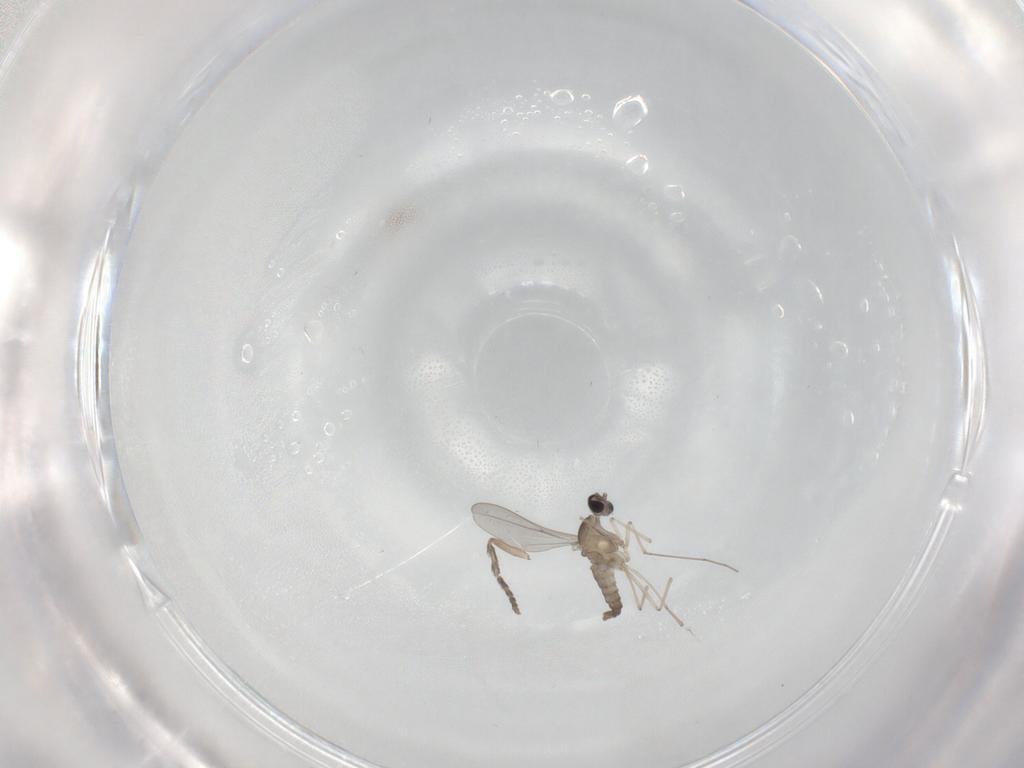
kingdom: Animalia
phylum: Arthropoda
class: Insecta
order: Diptera
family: Cecidomyiidae
